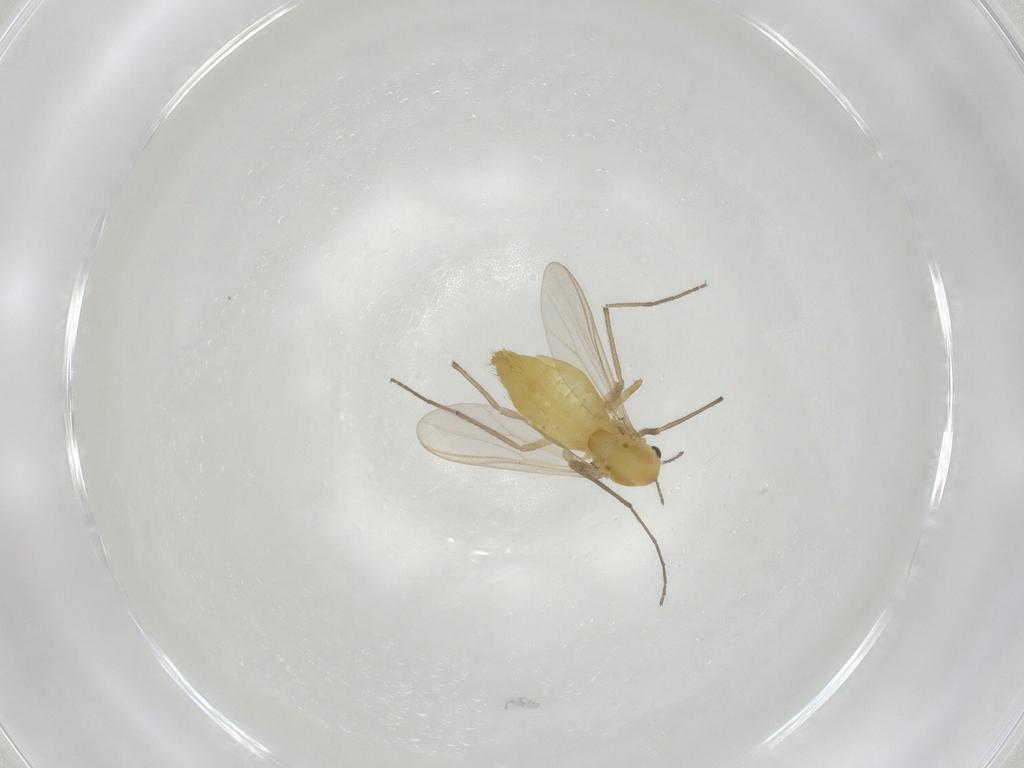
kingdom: Animalia
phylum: Arthropoda
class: Insecta
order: Diptera
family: Chironomidae
